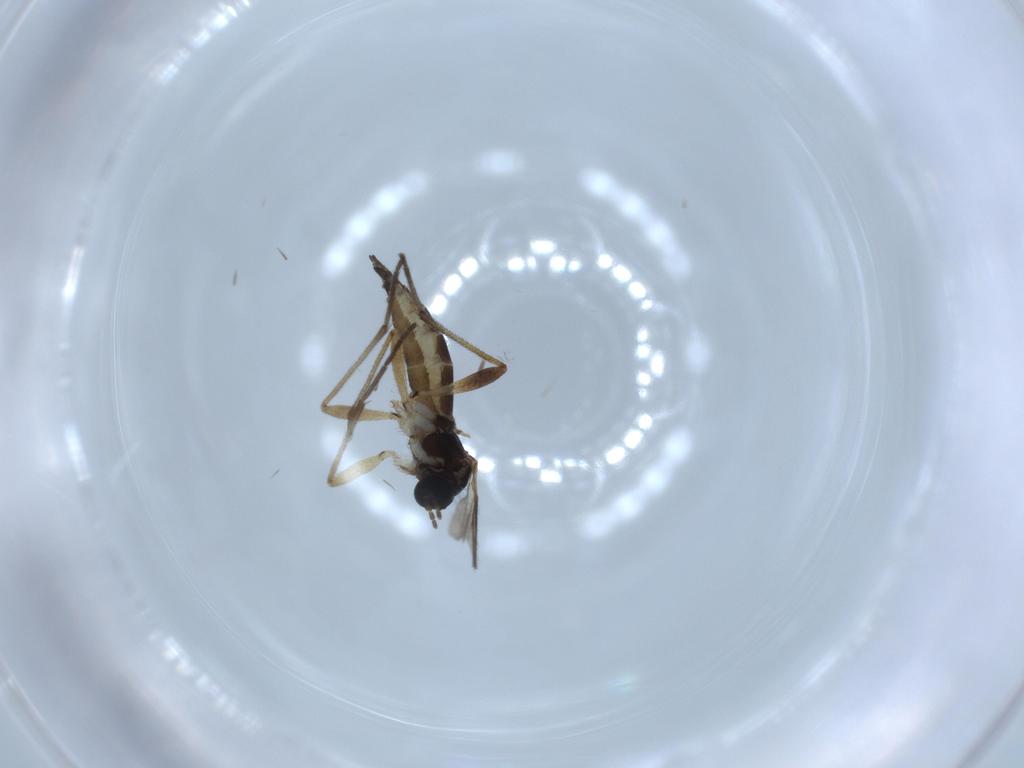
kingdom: Animalia
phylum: Arthropoda
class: Insecta
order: Diptera
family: Sciaridae
